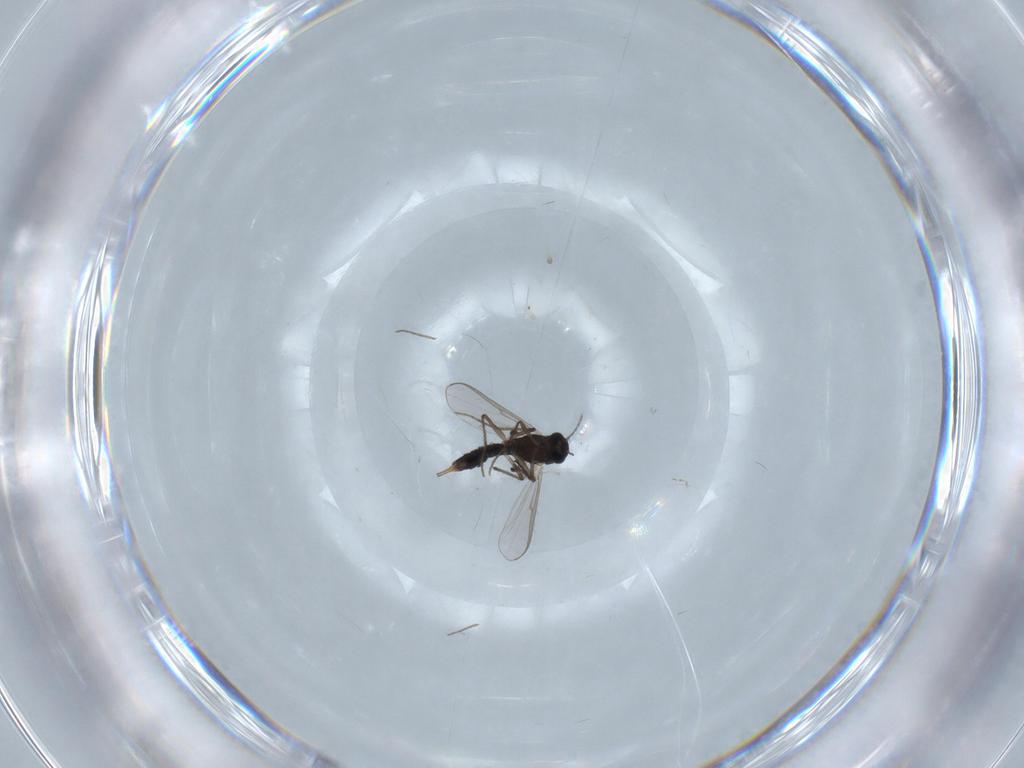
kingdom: Animalia
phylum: Arthropoda
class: Insecta
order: Diptera
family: Chironomidae
